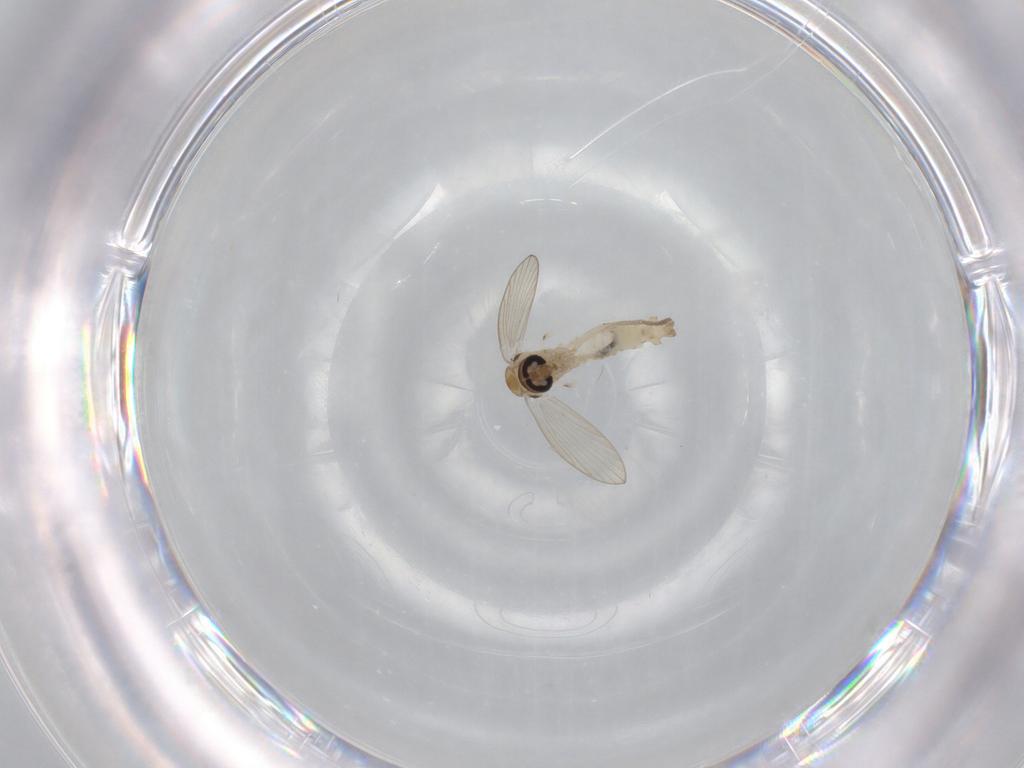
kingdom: Animalia
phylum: Arthropoda
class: Insecta
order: Diptera
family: Psychodidae
